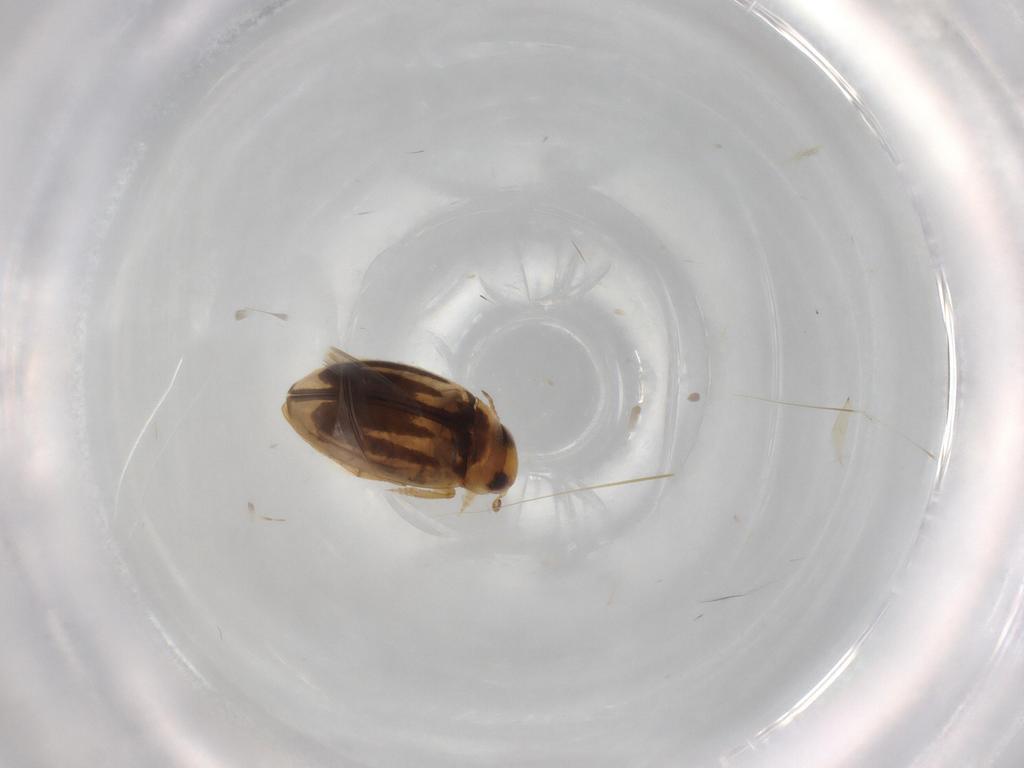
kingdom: Animalia
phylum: Arthropoda
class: Insecta
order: Coleoptera
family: Dytiscidae
